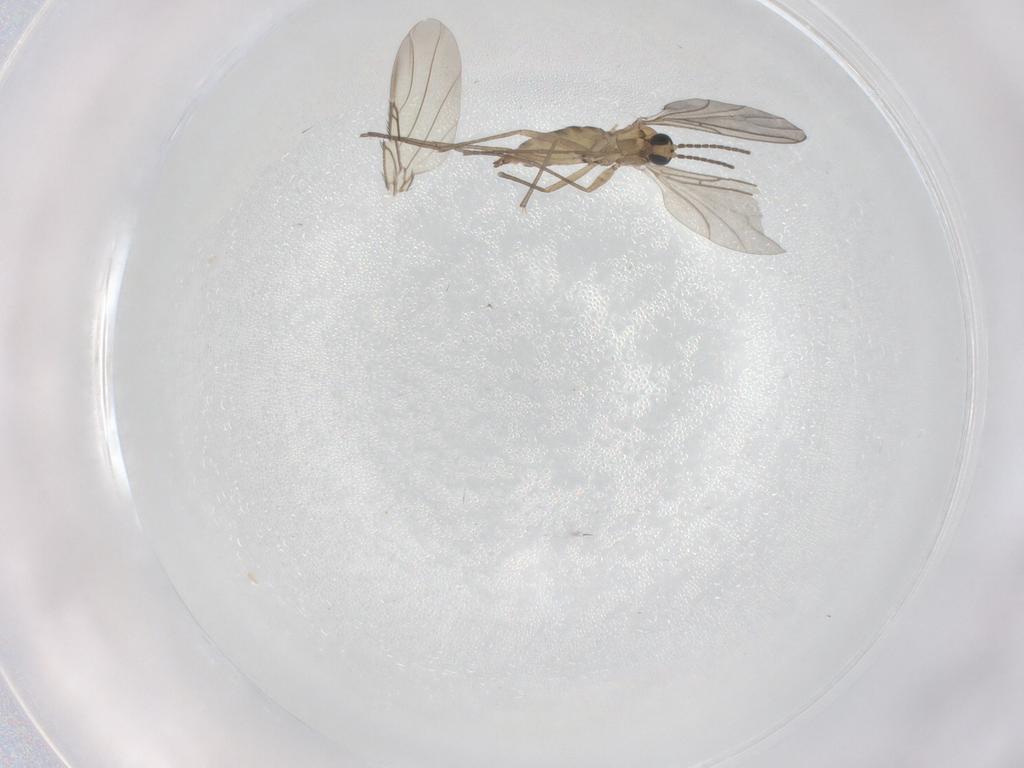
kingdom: Animalia
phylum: Arthropoda
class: Insecta
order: Diptera
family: Sciaridae
